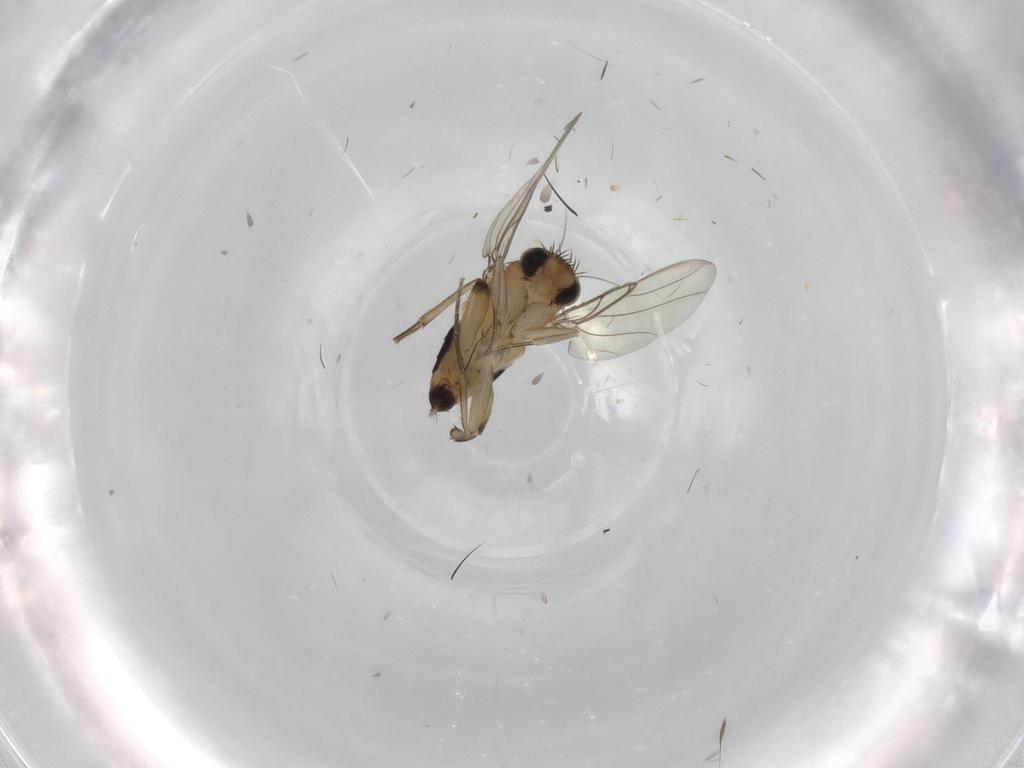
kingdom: Animalia
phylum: Arthropoda
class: Insecta
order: Diptera
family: Phoridae
